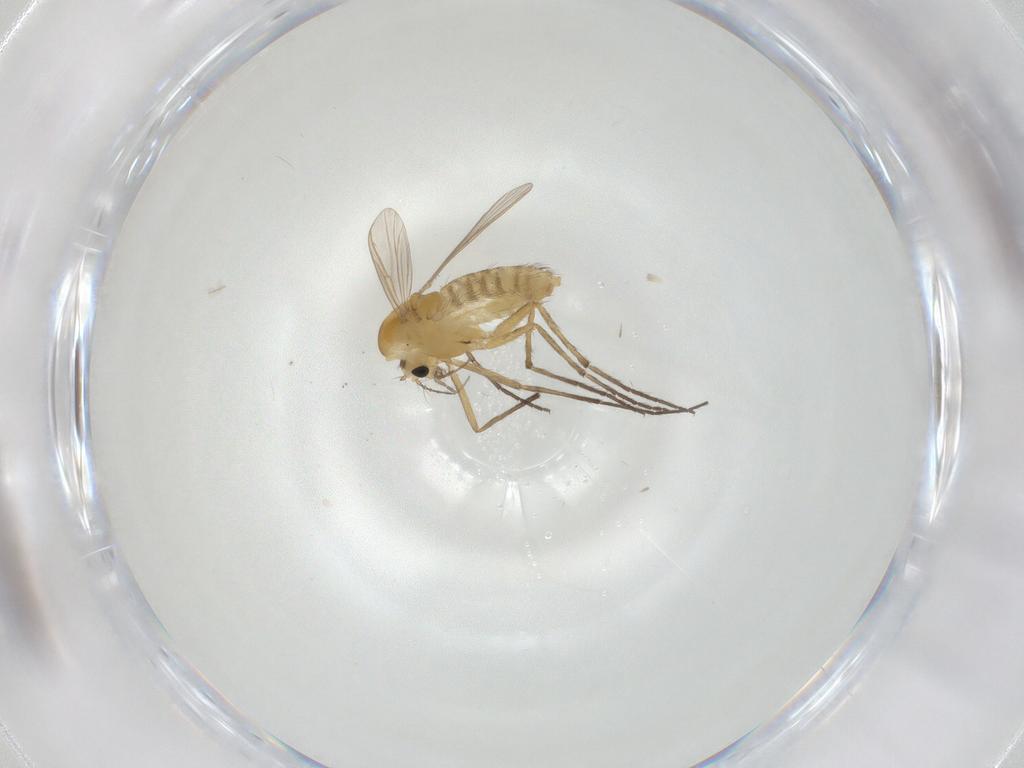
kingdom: Animalia
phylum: Arthropoda
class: Insecta
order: Diptera
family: Chironomidae
